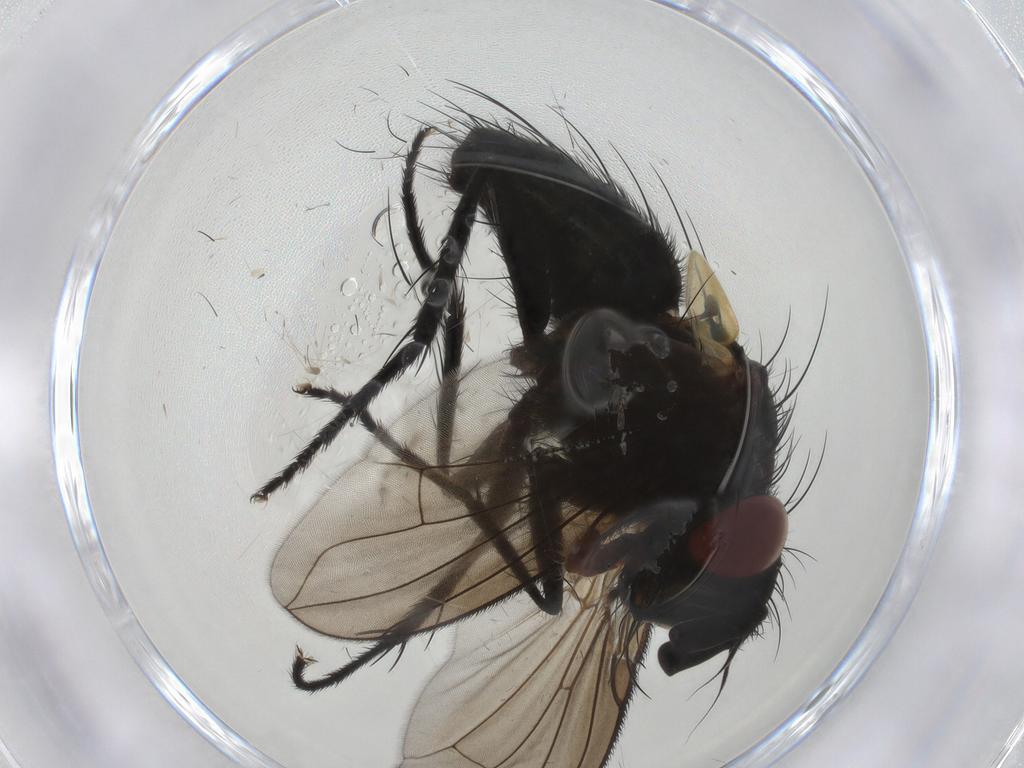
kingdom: Animalia
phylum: Arthropoda
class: Insecta
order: Diptera
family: Tachinidae
